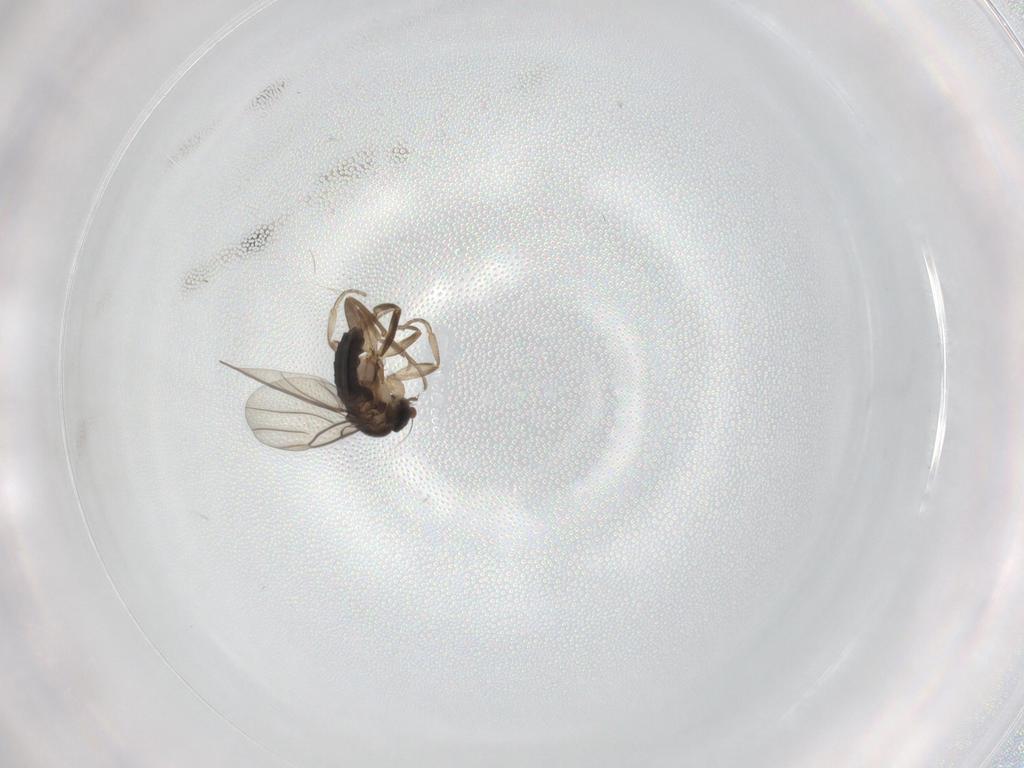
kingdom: Animalia
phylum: Arthropoda
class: Insecta
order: Diptera
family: Phoridae
